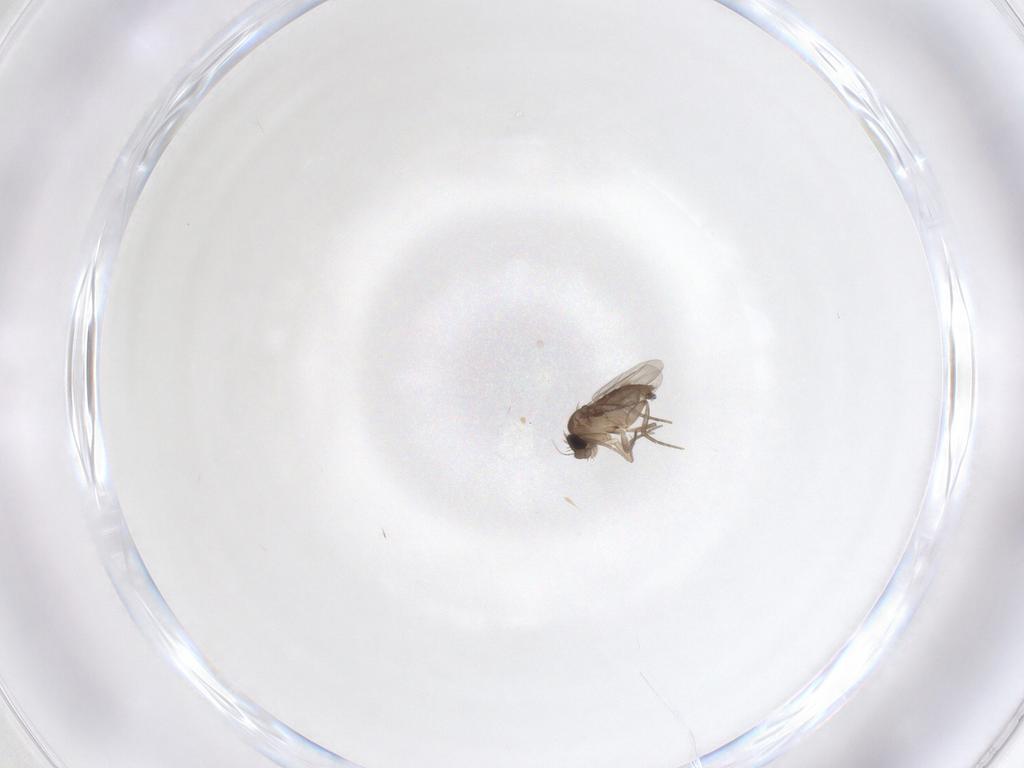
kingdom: Animalia
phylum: Arthropoda
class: Insecta
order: Diptera
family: Phoridae
